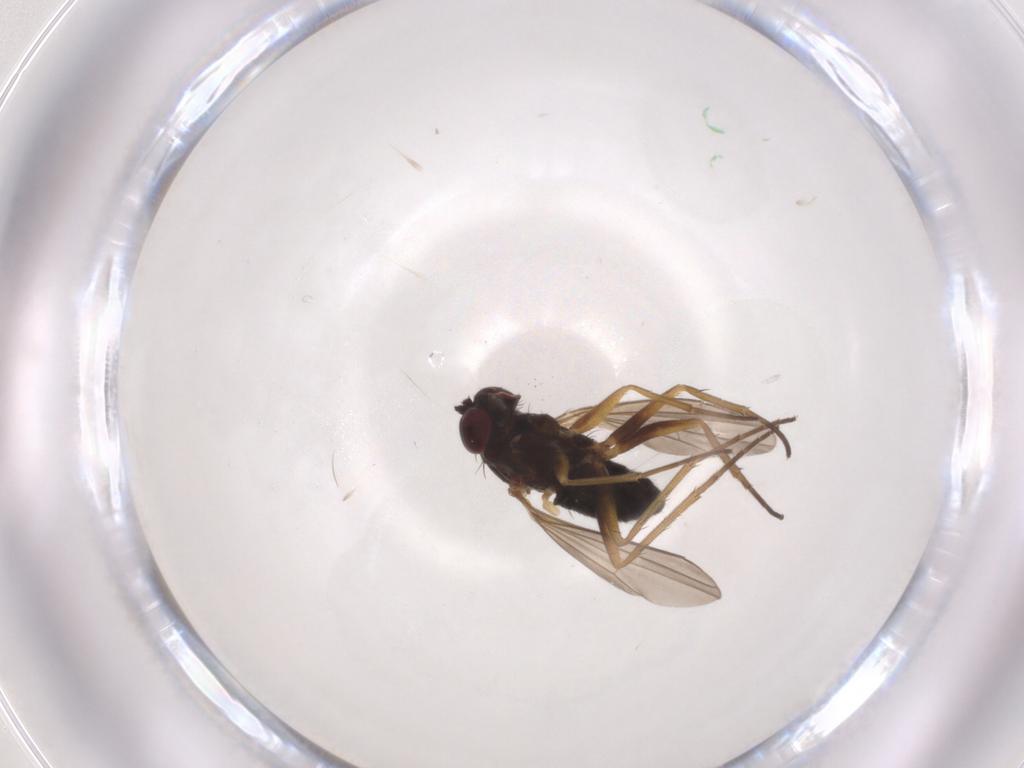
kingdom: Animalia
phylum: Arthropoda
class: Insecta
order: Diptera
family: Dolichopodidae
